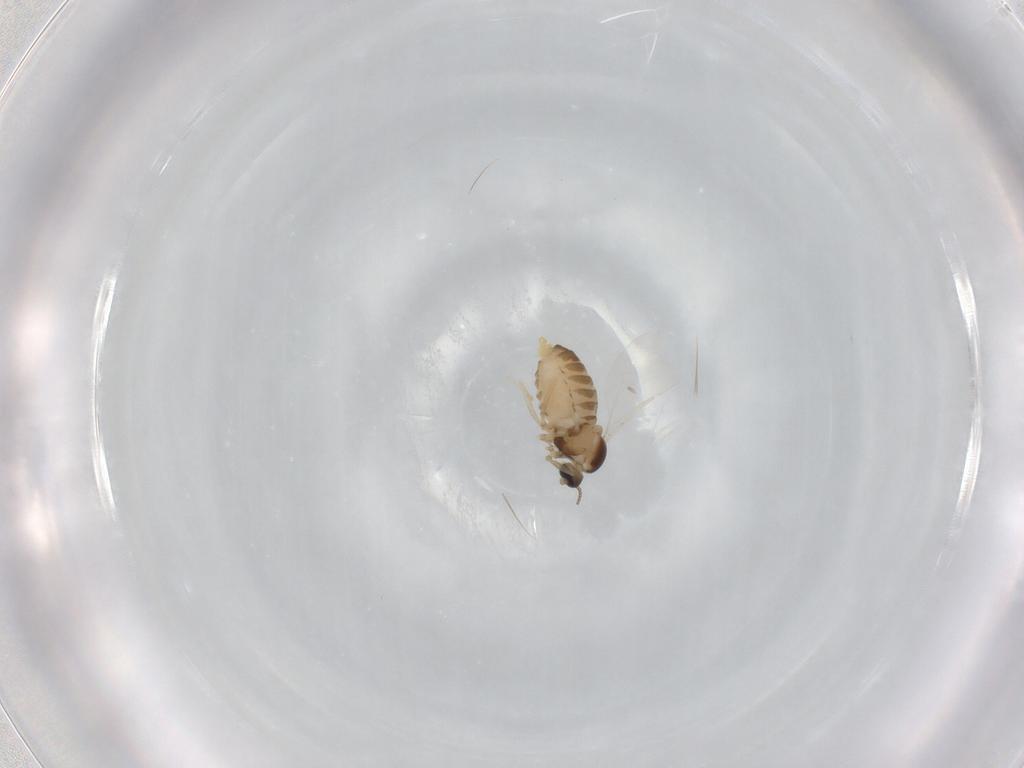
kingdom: Animalia
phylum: Arthropoda
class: Insecta
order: Diptera
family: Cecidomyiidae
